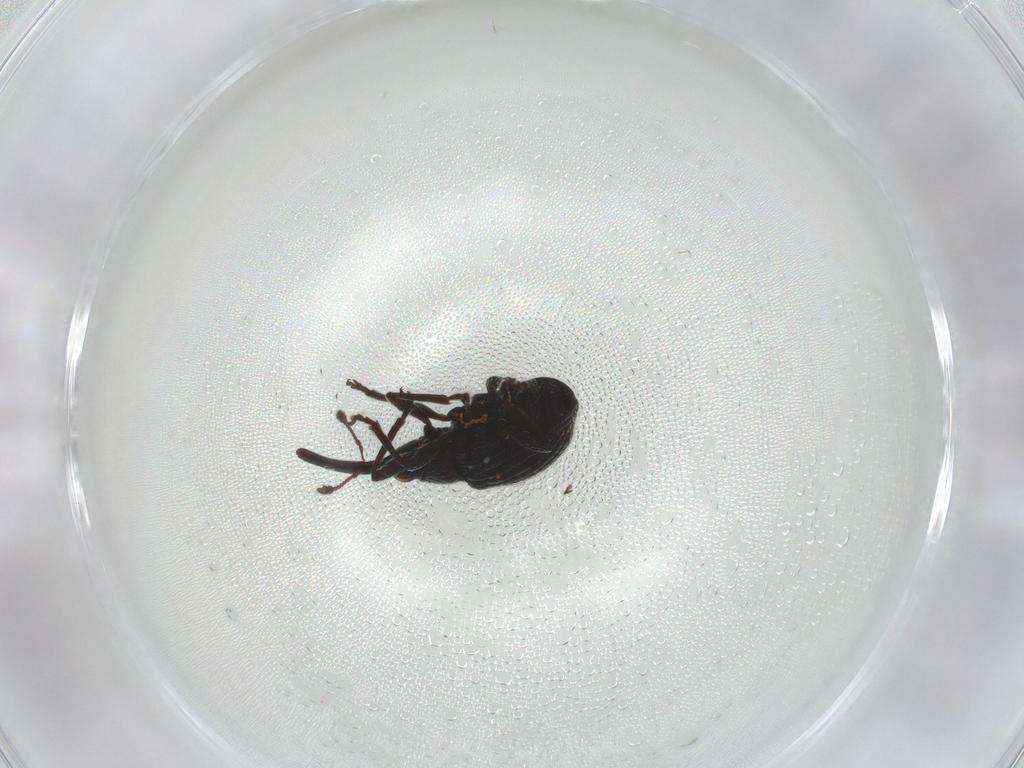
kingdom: Animalia
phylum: Arthropoda
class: Insecta
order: Coleoptera
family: Brentidae
